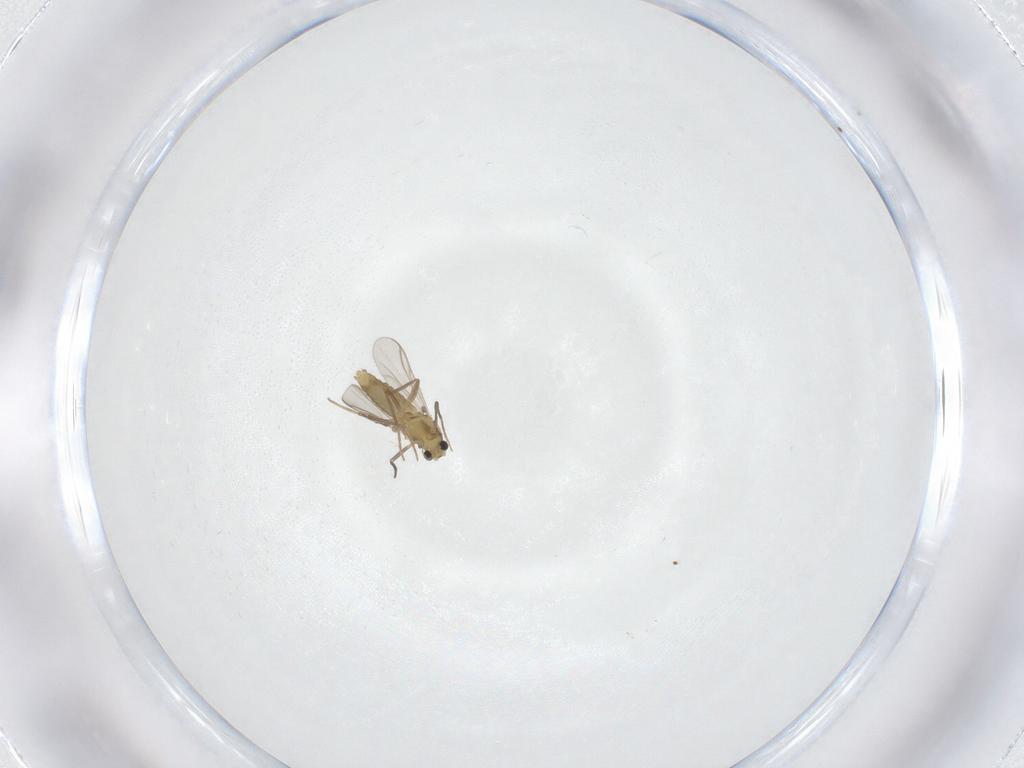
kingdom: Animalia
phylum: Arthropoda
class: Insecta
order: Diptera
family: Chironomidae
